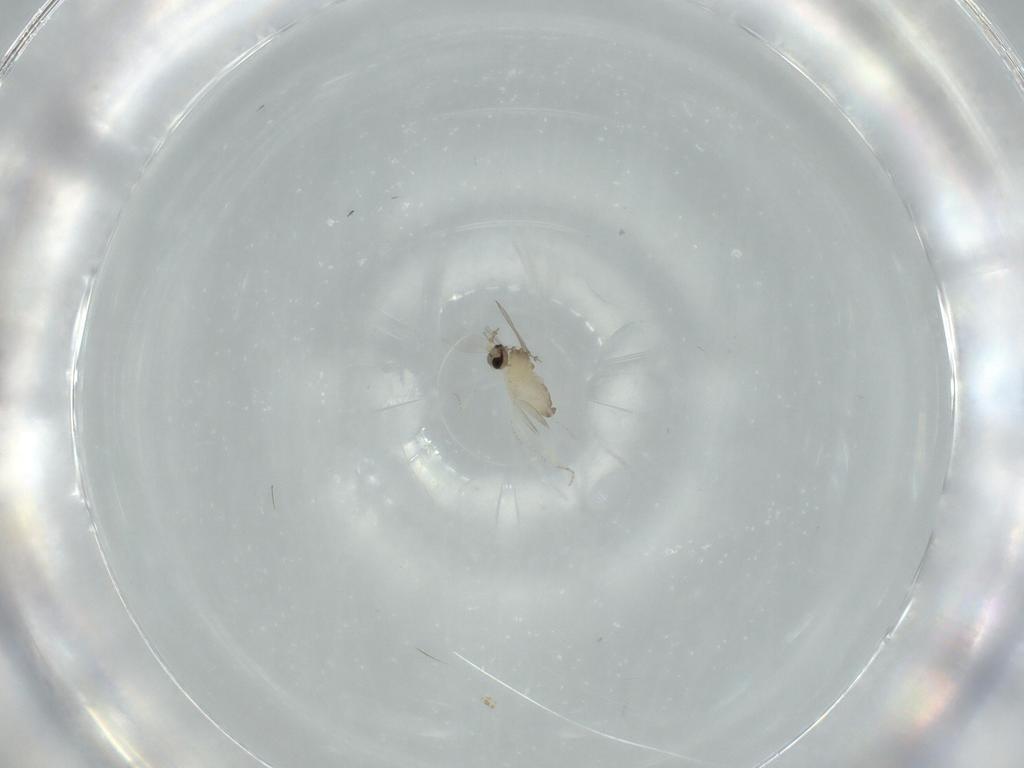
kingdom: Animalia
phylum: Arthropoda
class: Insecta
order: Diptera
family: Cecidomyiidae
